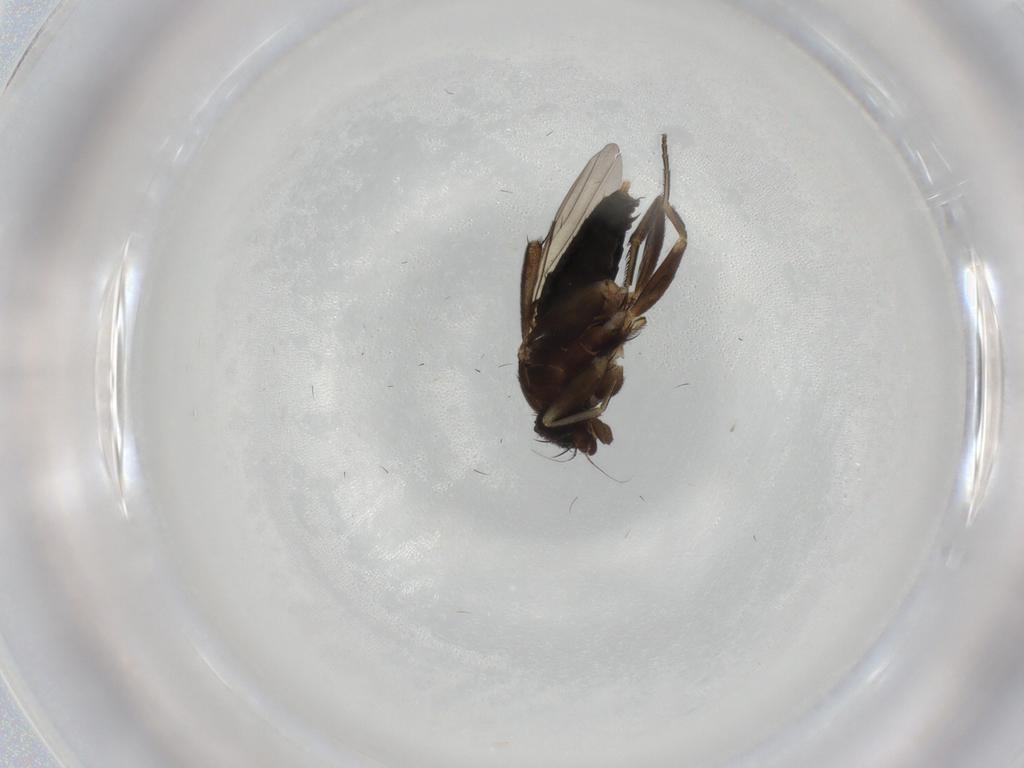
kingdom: Animalia
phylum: Arthropoda
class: Insecta
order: Diptera
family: Phoridae
